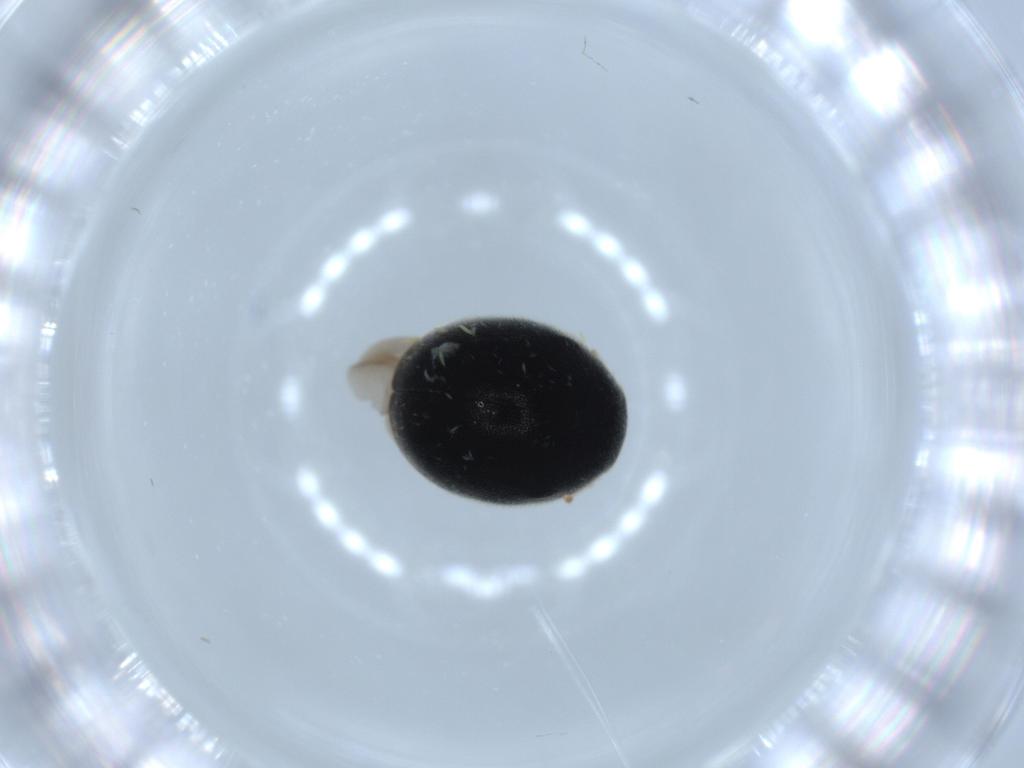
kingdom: Animalia
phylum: Arthropoda
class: Insecta
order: Coleoptera
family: Coccinellidae
